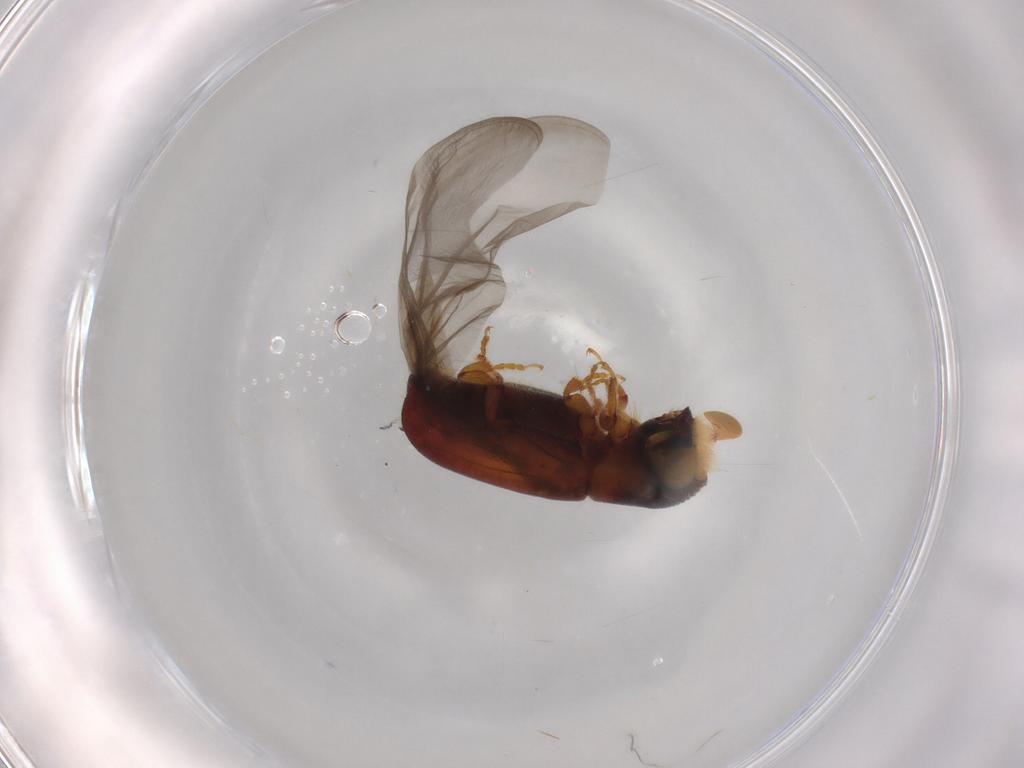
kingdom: Animalia
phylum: Arthropoda
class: Insecta
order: Coleoptera
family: Curculionidae
